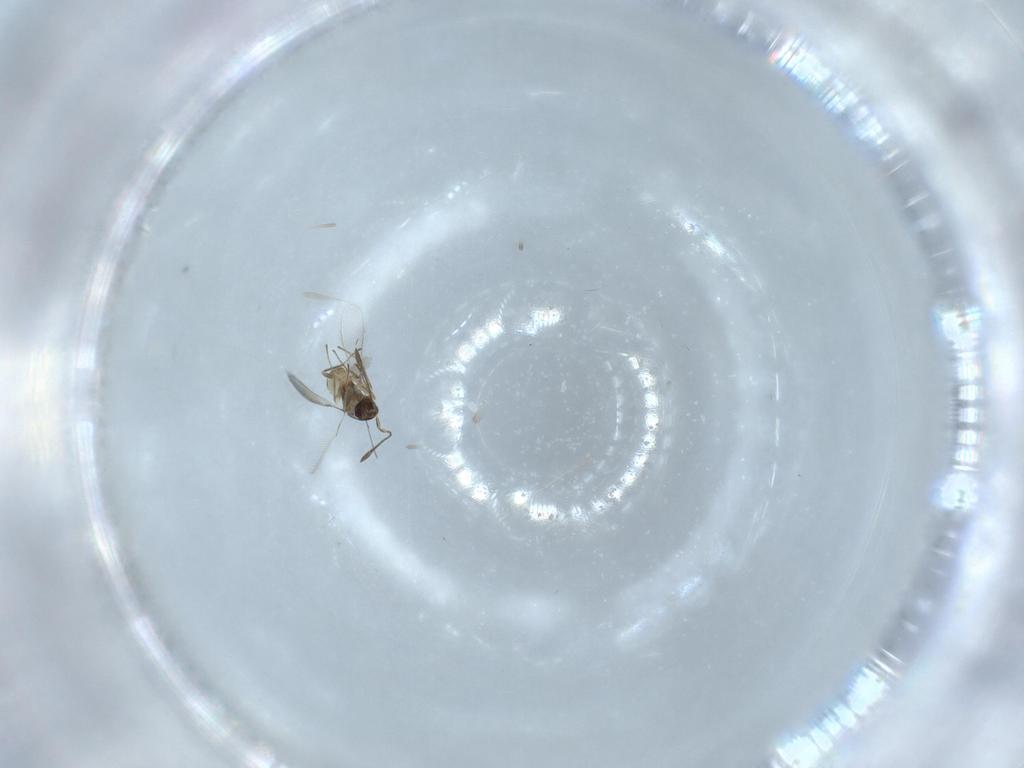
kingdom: Animalia
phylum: Arthropoda
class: Insecta
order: Hymenoptera
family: Mymaridae
